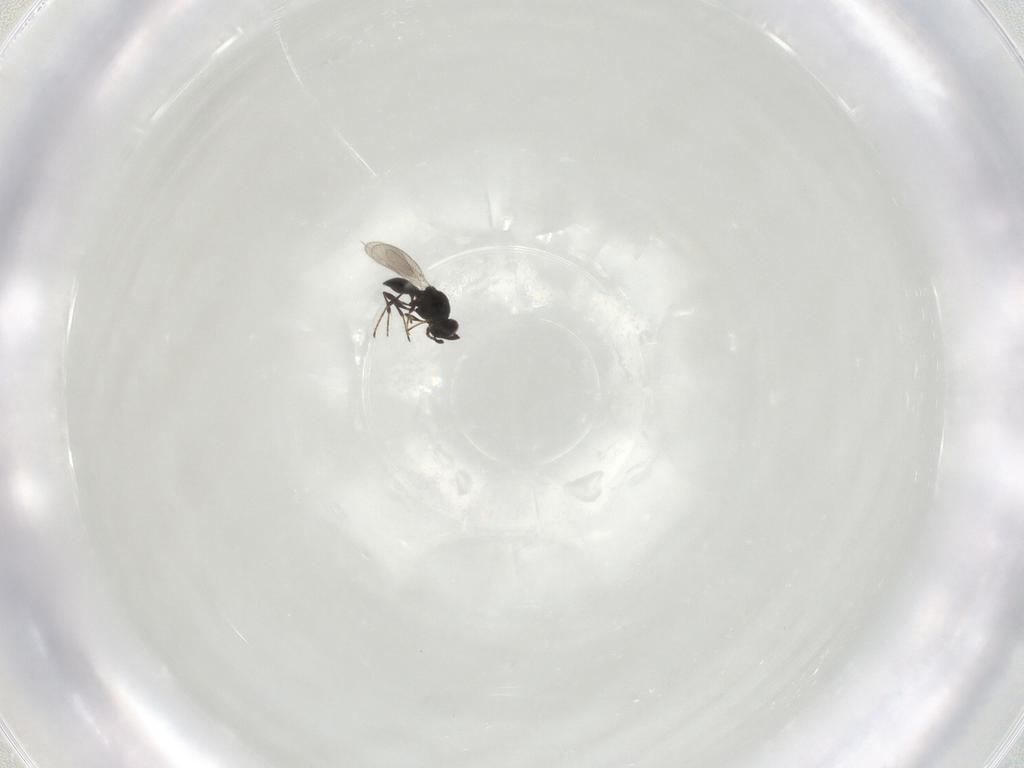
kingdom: Animalia
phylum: Arthropoda
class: Insecta
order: Hymenoptera
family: Platygastridae
